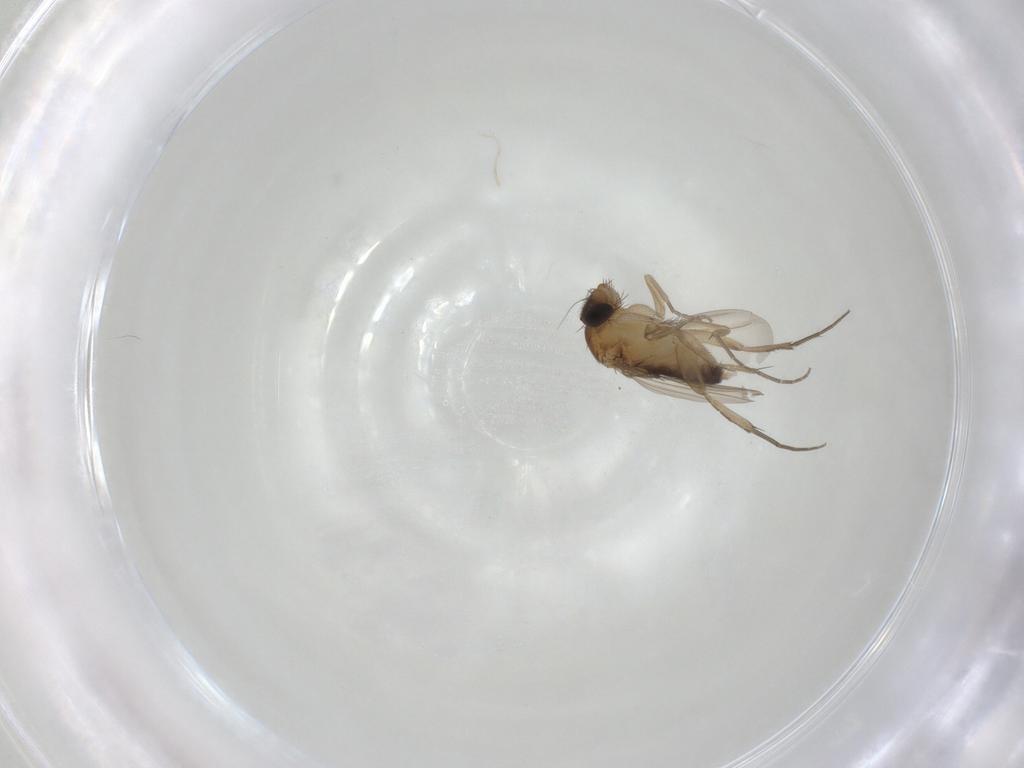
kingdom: Animalia
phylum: Arthropoda
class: Insecta
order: Diptera
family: Phoridae
